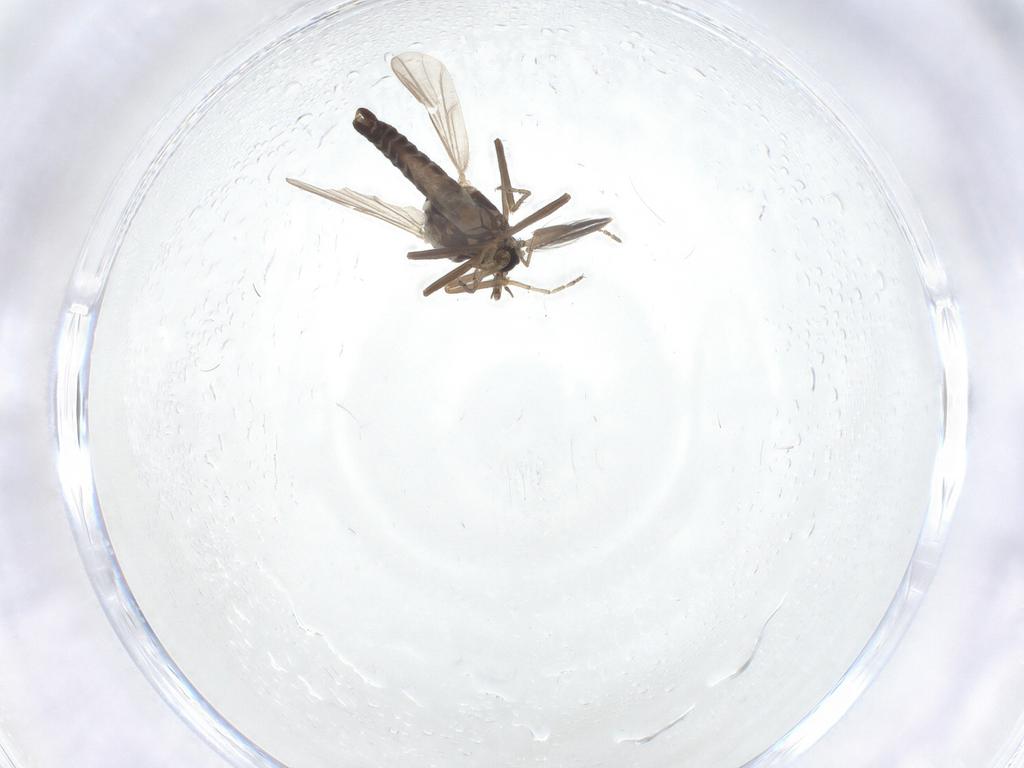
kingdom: Animalia
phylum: Arthropoda
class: Insecta
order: Diptera
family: Ceratopogonidae
